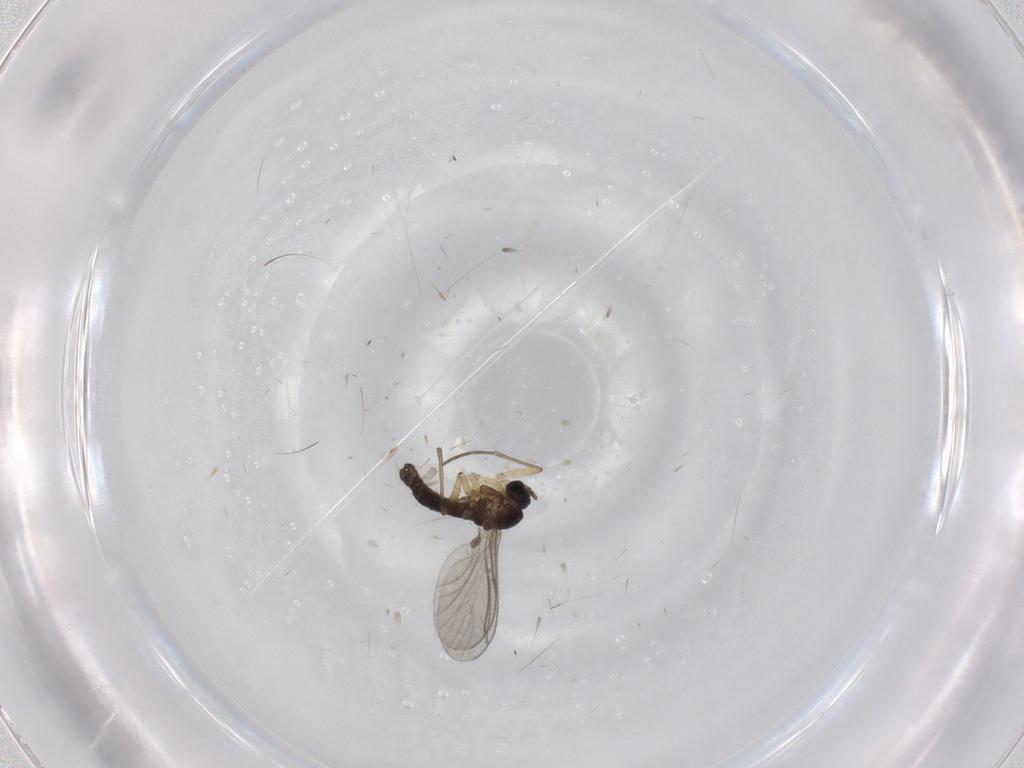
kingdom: Animalia
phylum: Arthropoda
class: Insecta
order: Diptera
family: Sciaridae
